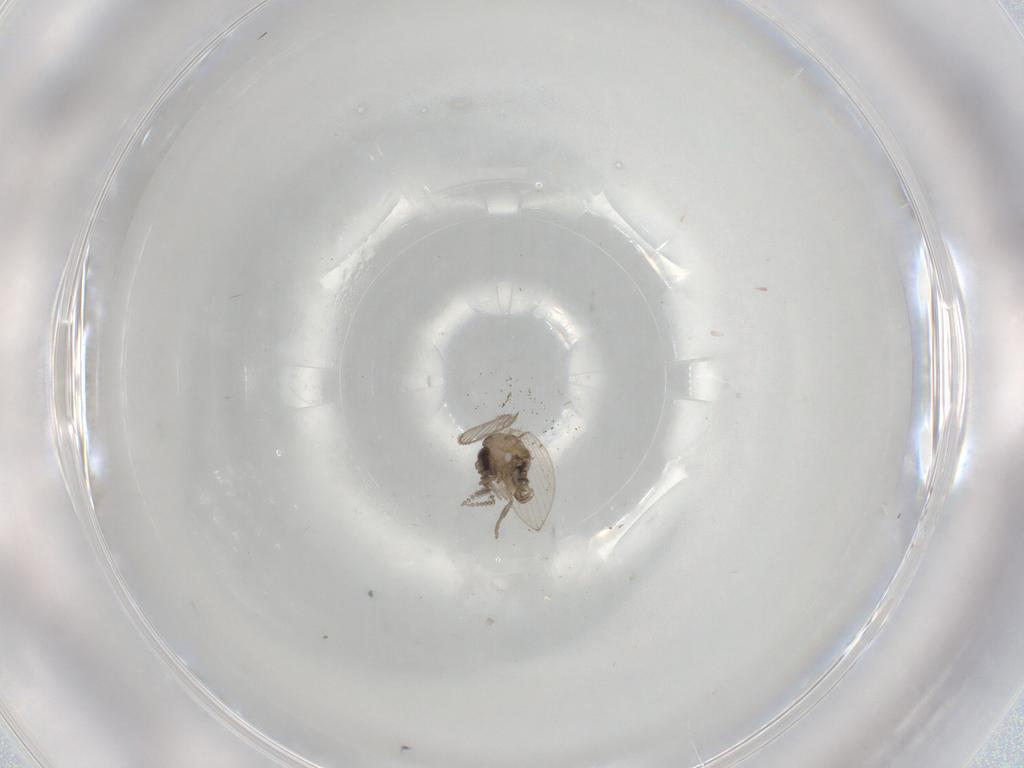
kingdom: Animalia
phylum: Arthropoda
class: Insecta
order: Diptera
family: Psychodidae
